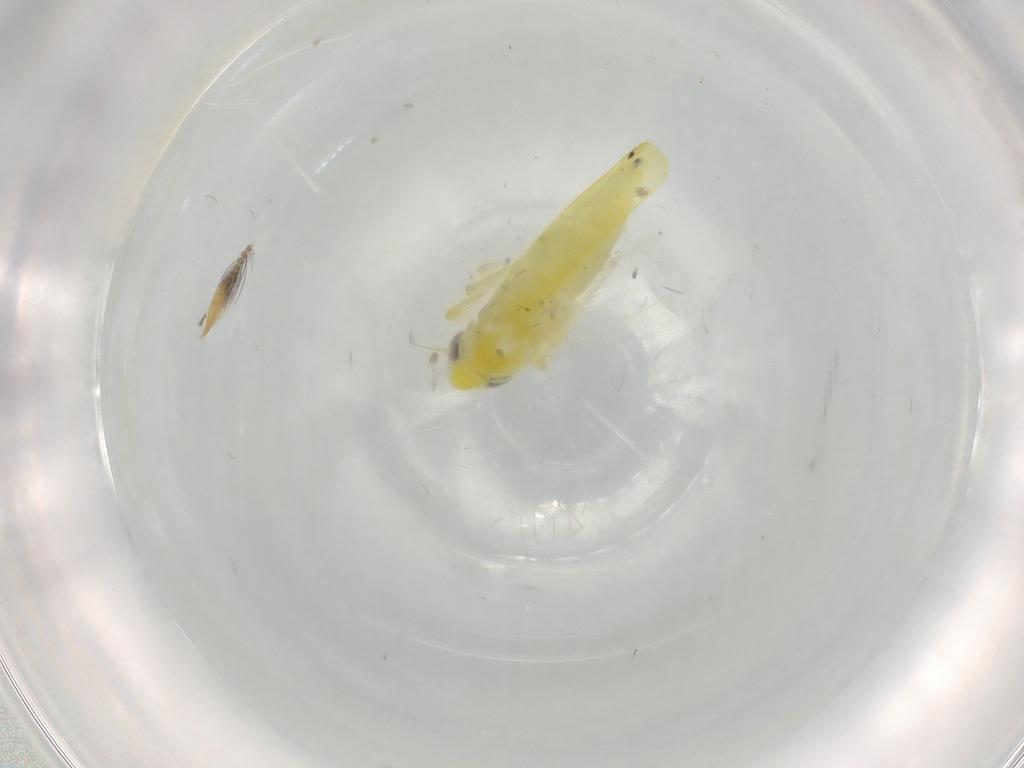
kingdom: Animalia
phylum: Arthropoda
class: Insecta
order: Hemiptera
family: Cicadellidae
